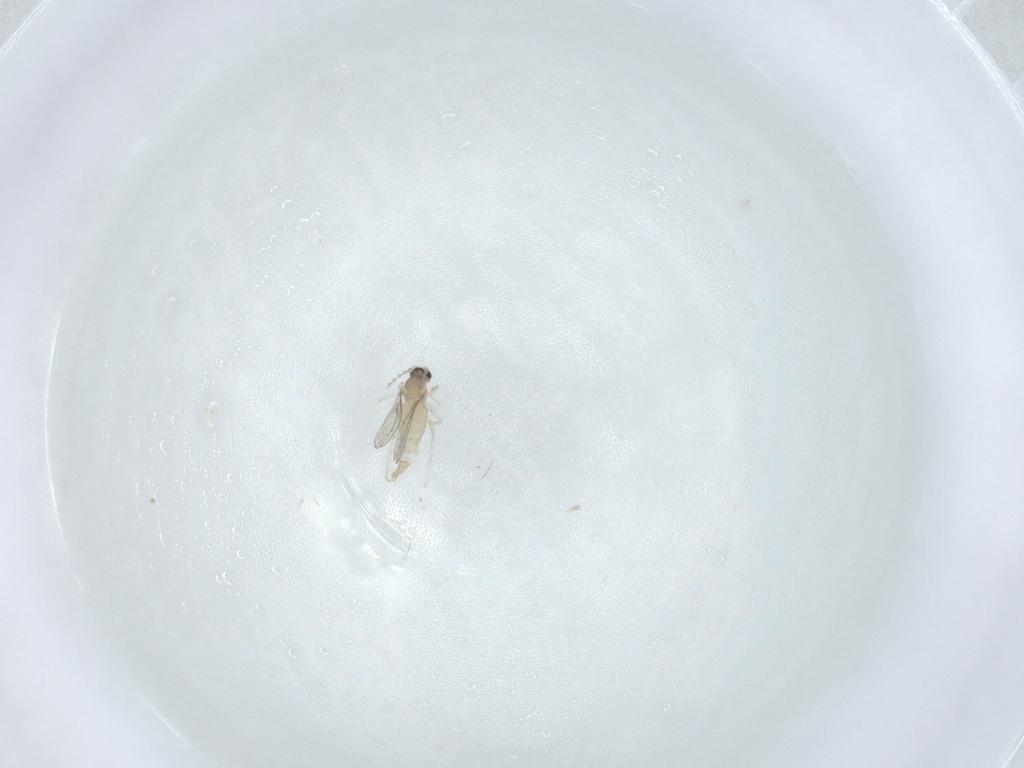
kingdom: Animalia
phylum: Arthropoda
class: Insecta
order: Diptera
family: Cecidomyiidae
